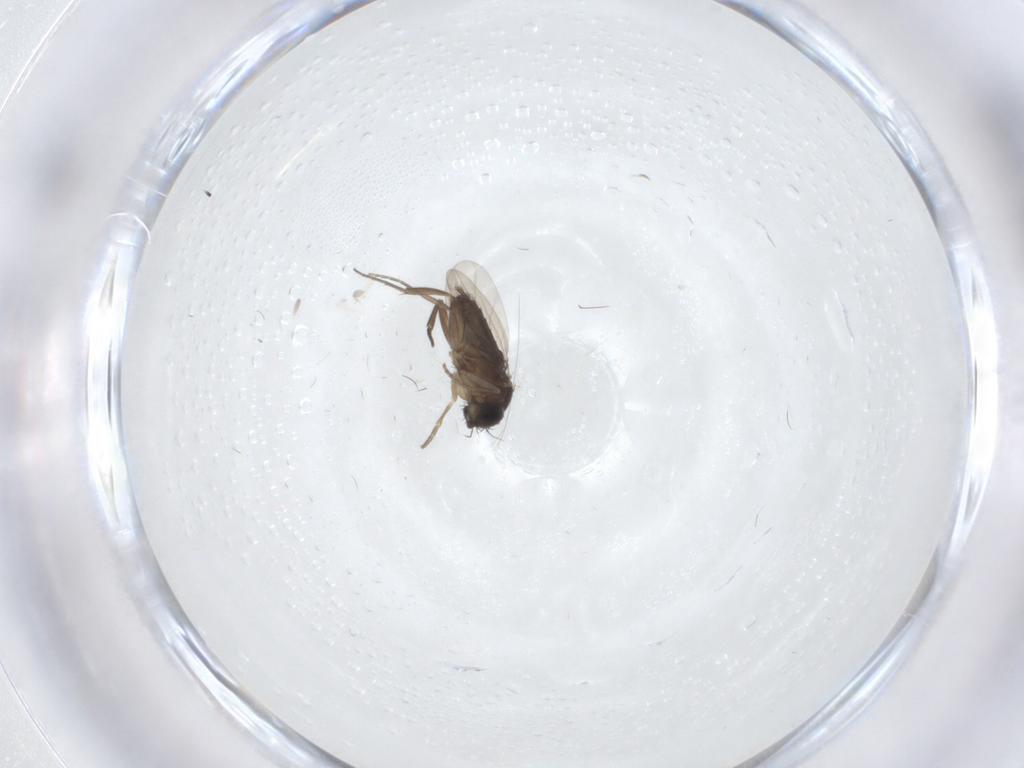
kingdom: Animalia
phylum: Arthropoda
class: Insecta
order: Diptera
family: Phoridae
